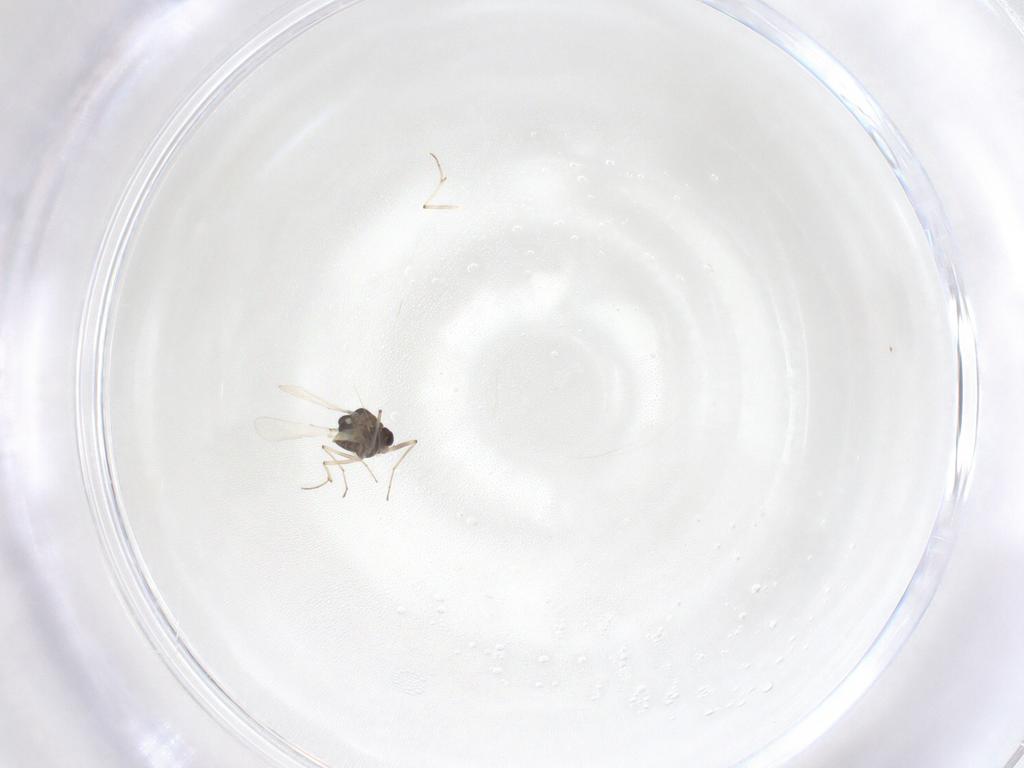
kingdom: Animalia
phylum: Arthropoda
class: Insecta
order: Diptera
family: Chironomidae
